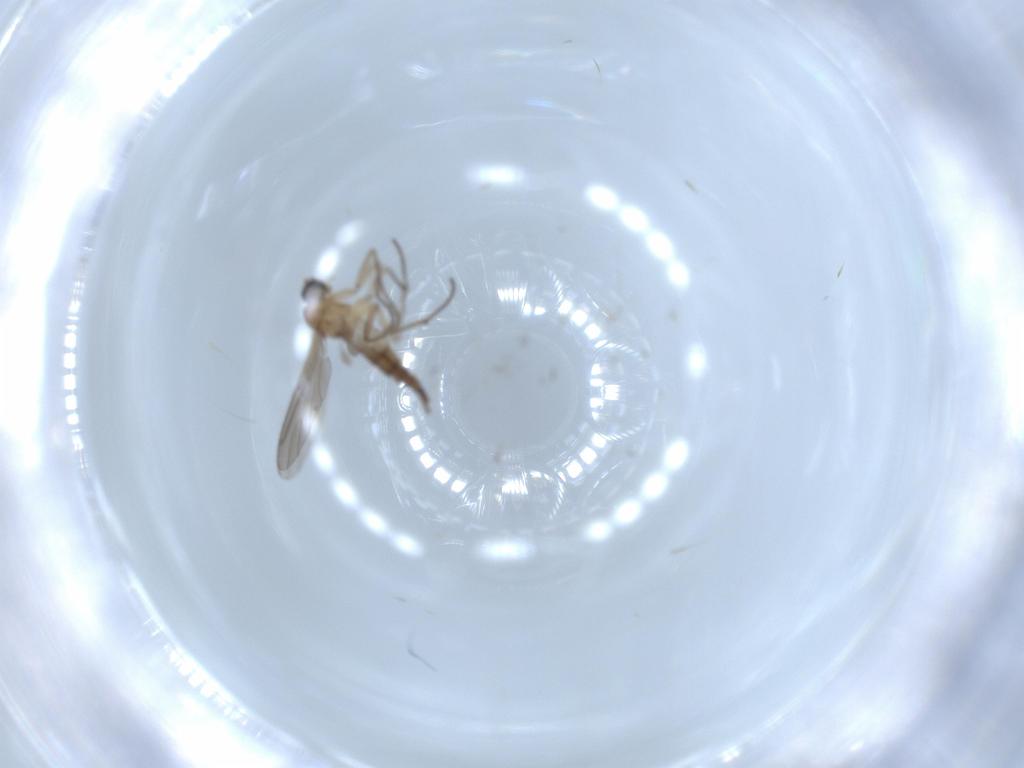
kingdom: Animalia
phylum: Arthropoda
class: Insecta
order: Diptera
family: Sciaridae
